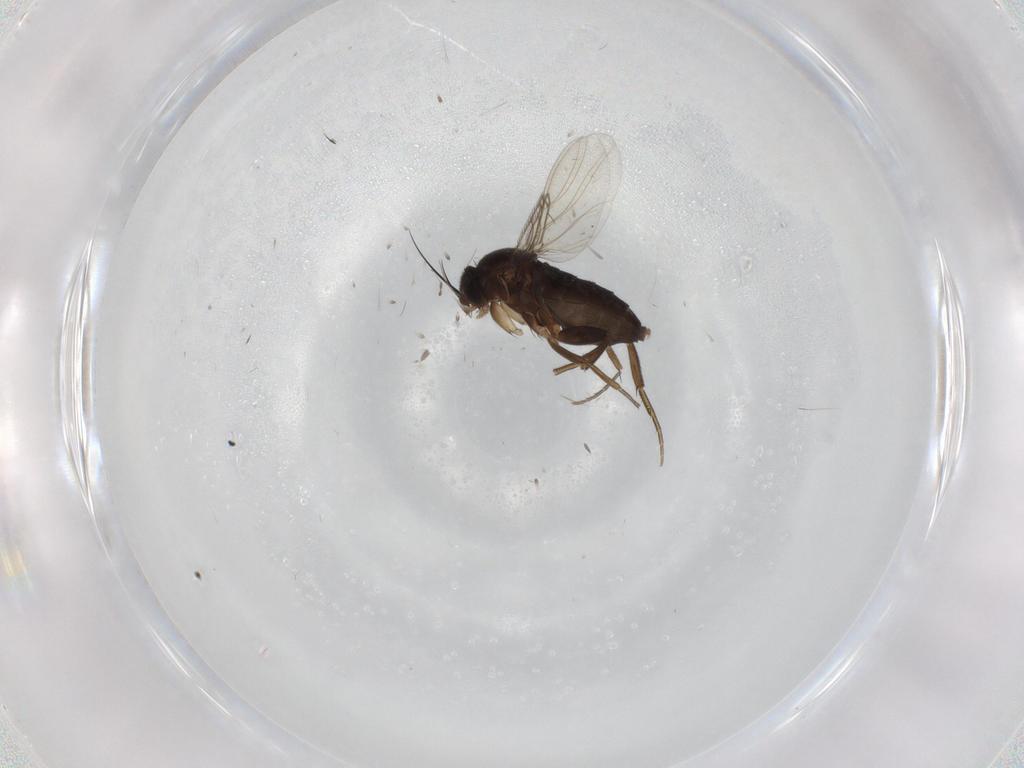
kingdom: Animalia
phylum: Arthropoda
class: Insecta
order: Diptera
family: Phoridae
